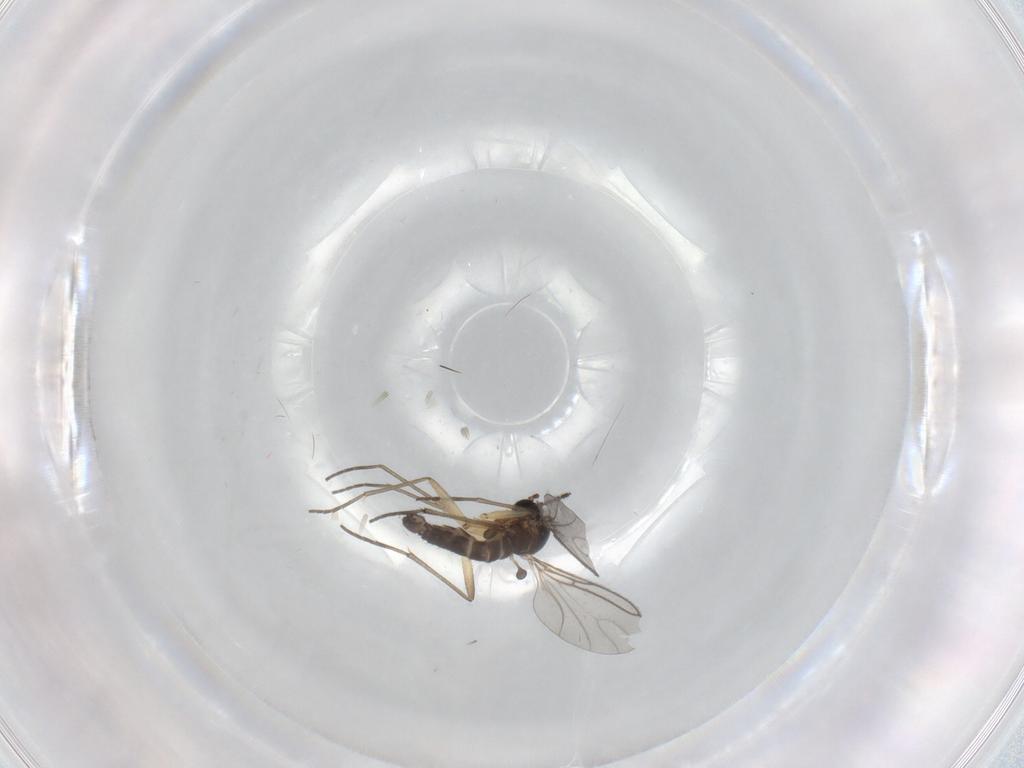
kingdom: Animalia
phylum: Arthropoda
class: Insecta
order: Diptera
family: Sciaridae
